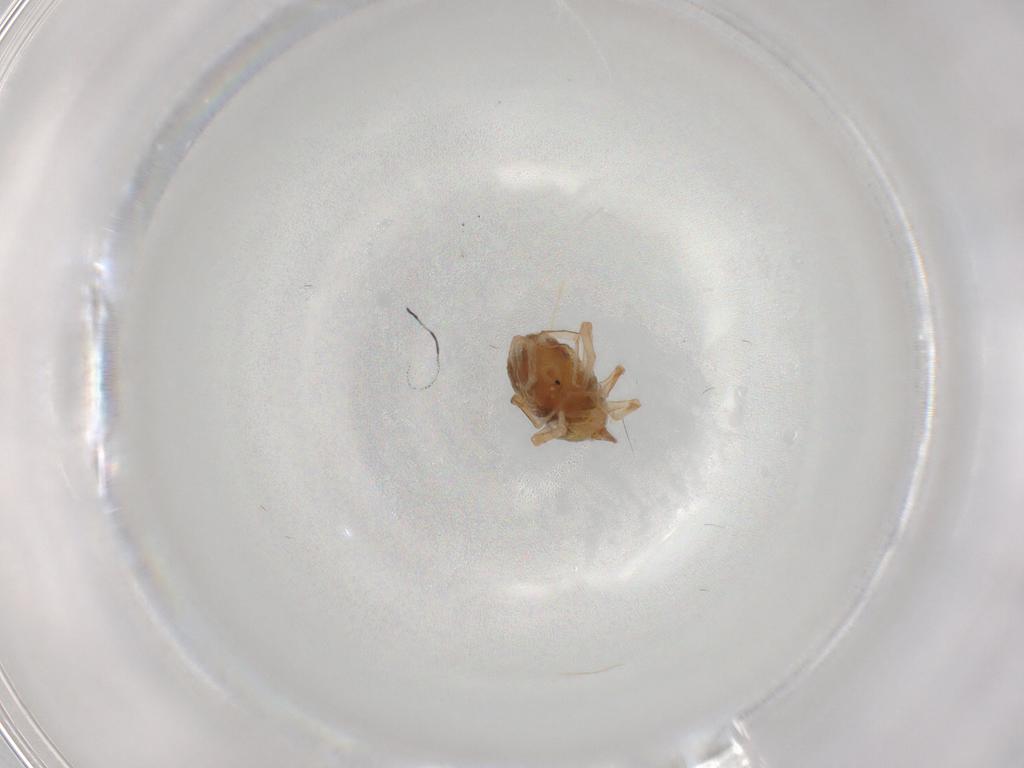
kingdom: Animalia
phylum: Arthropoda
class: Arachnida
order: Trombidiformes
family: Bdellidae
